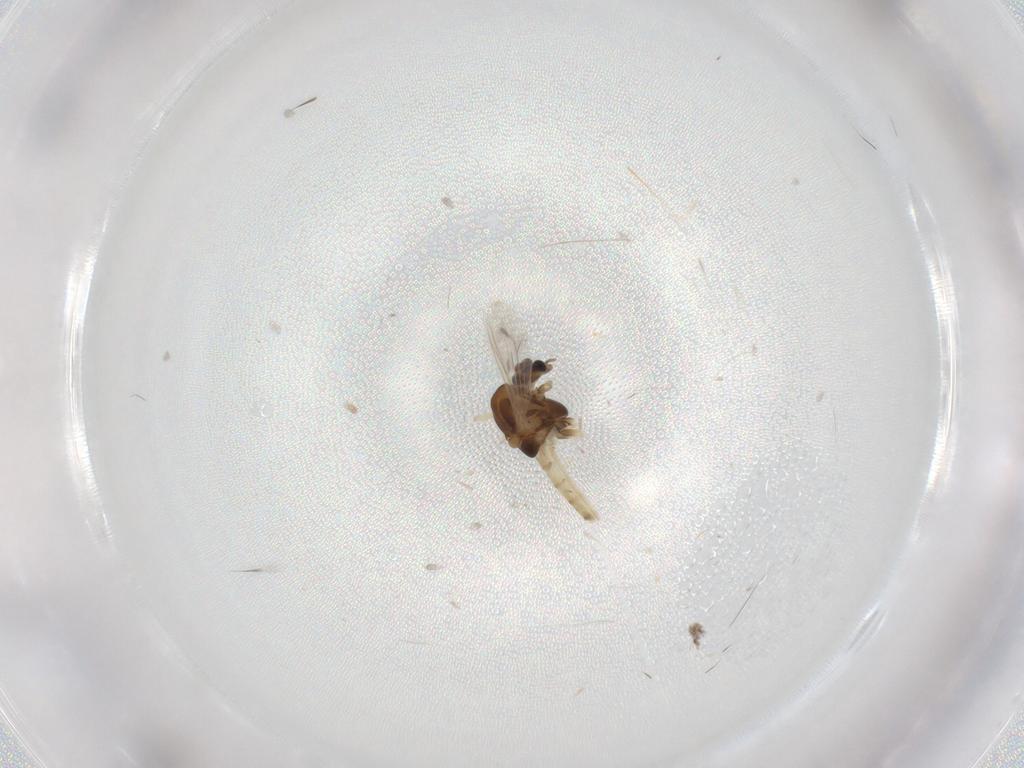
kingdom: Animalia
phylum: Arthropoda
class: Insecta
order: Diptera
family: Chironomidae
